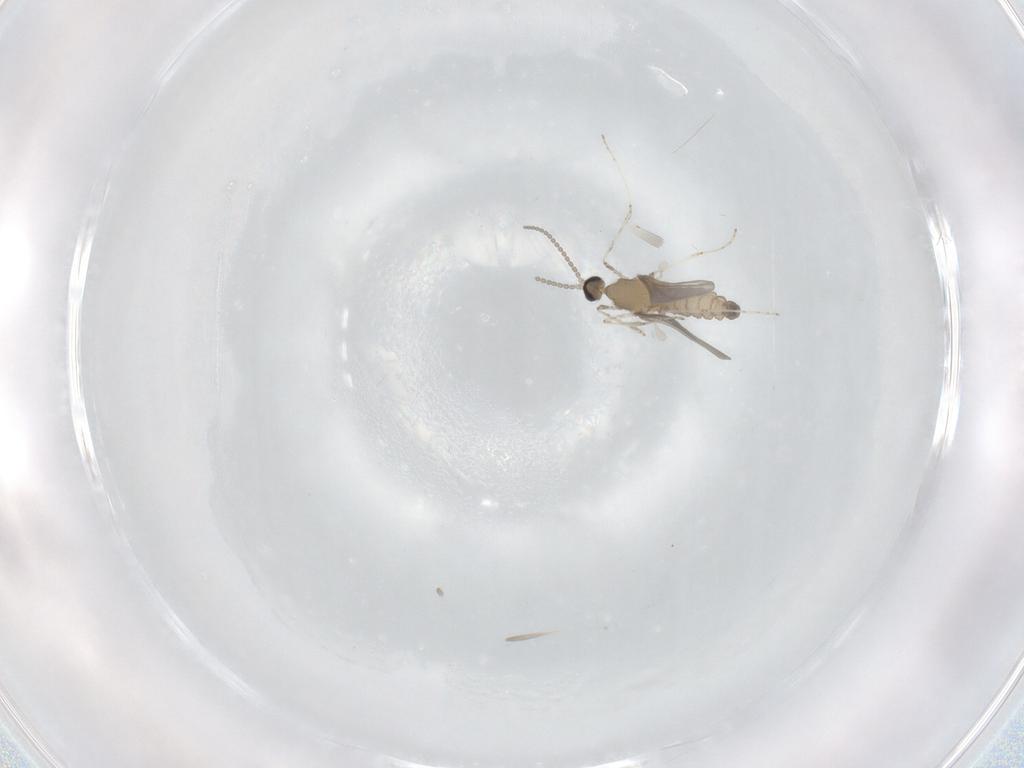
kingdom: Animalia
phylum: Arthropoda
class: Insecta
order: Diptera
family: Cecidomyiidae
